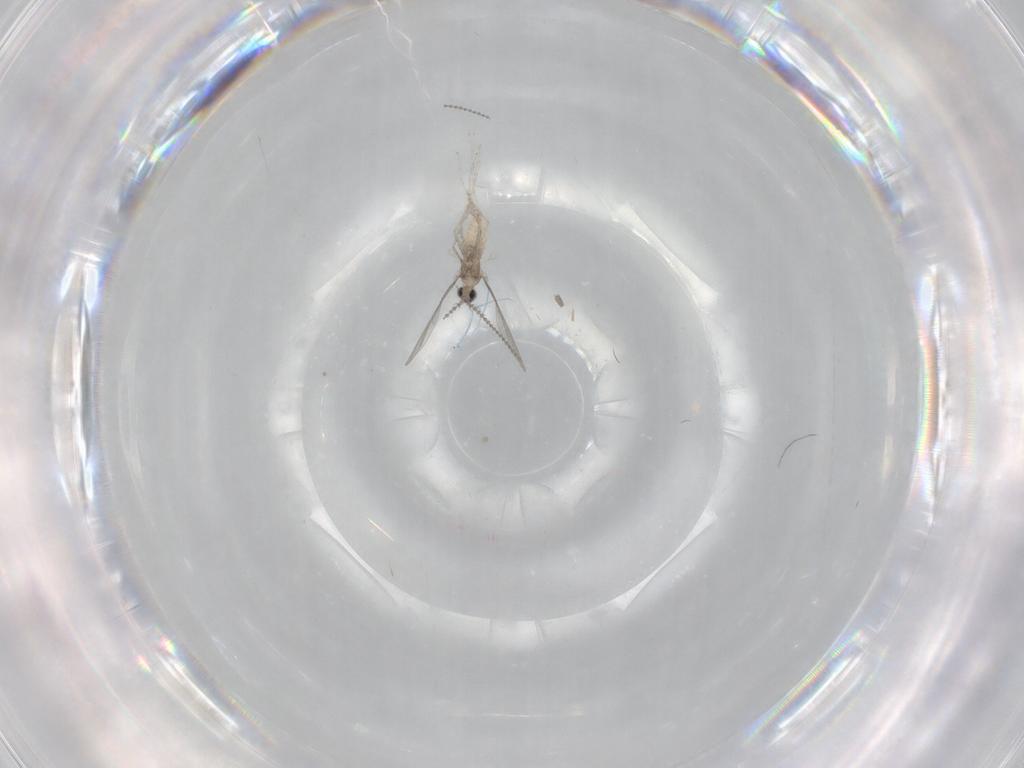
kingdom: Animalia
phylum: Arthropoda
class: Insecta
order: Diptera
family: Cecidomyiidae
